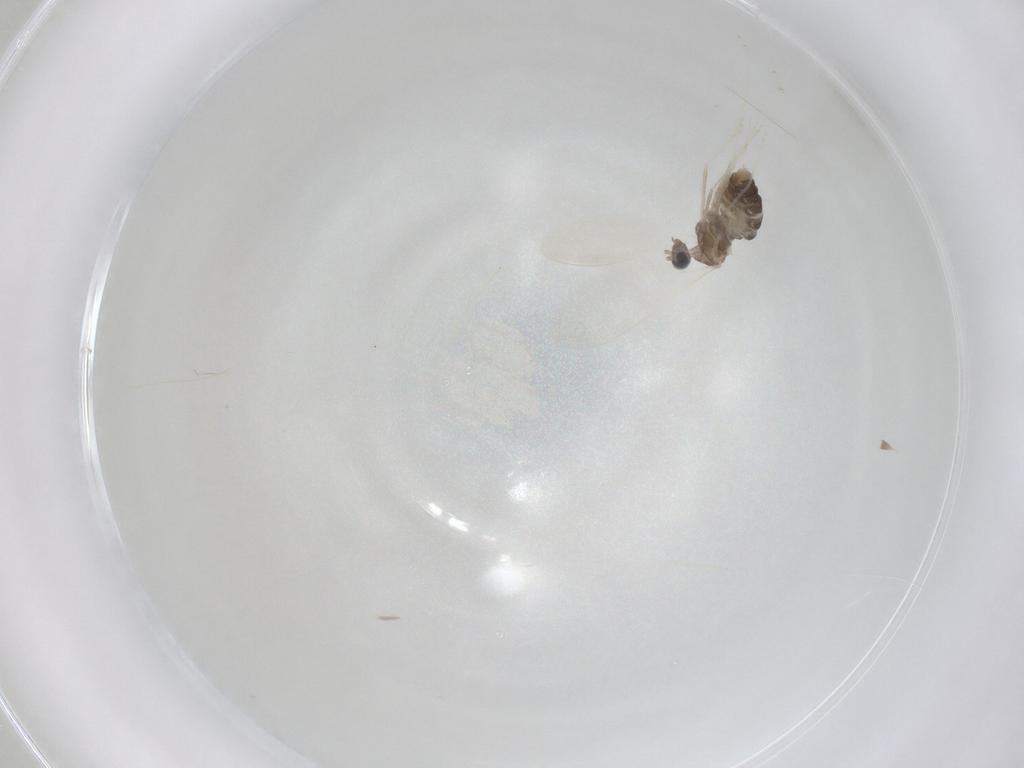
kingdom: Animalia
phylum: Arthropoda
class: Insecta
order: Diptera
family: Cecidomyiidae
